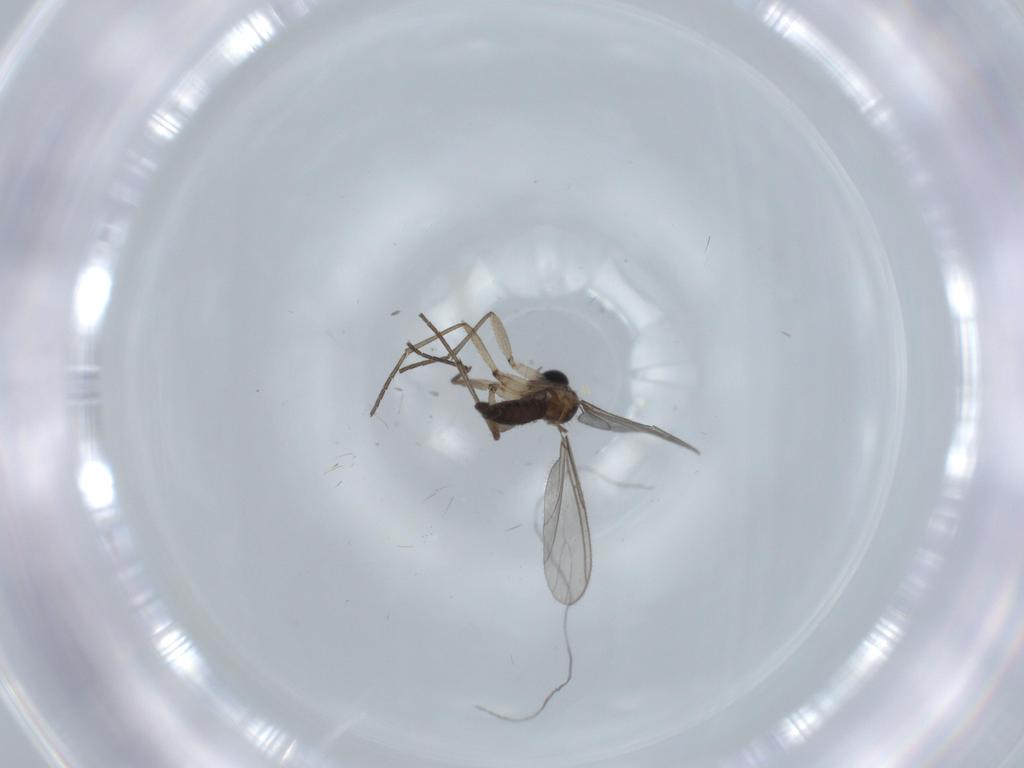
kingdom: Animalia
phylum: Arthropoda
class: Insecta
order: Diptera
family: Sciaridae
